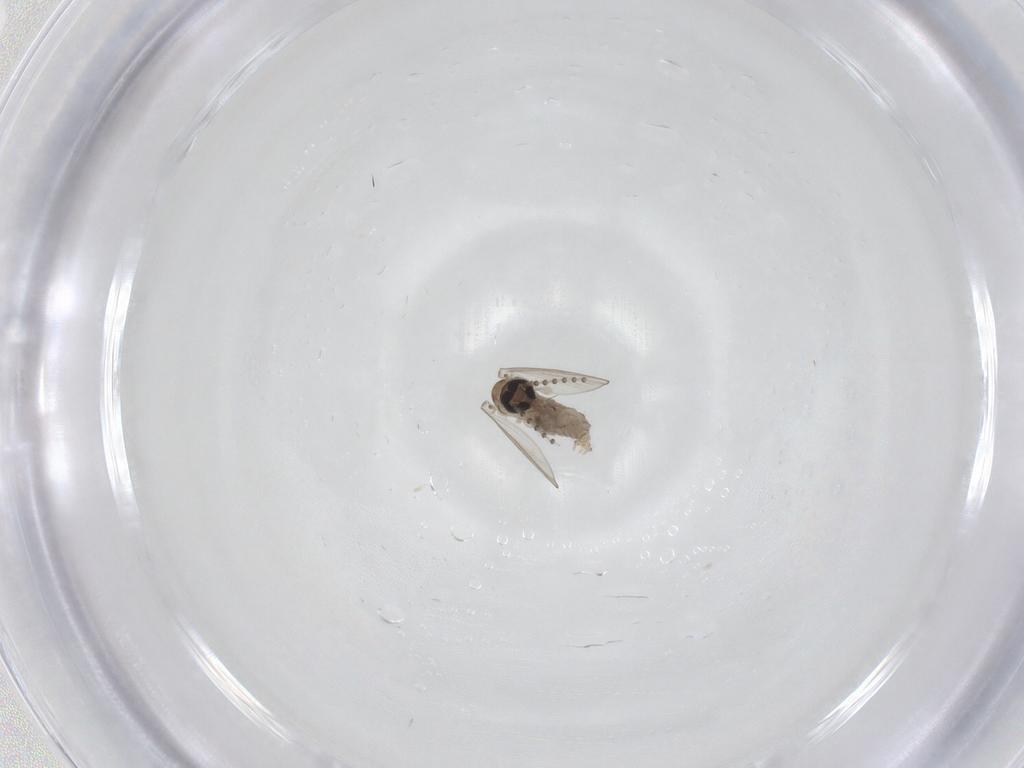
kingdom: Animalia
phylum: Arthropoda
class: Insecta
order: Diptera
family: Psychodidae
